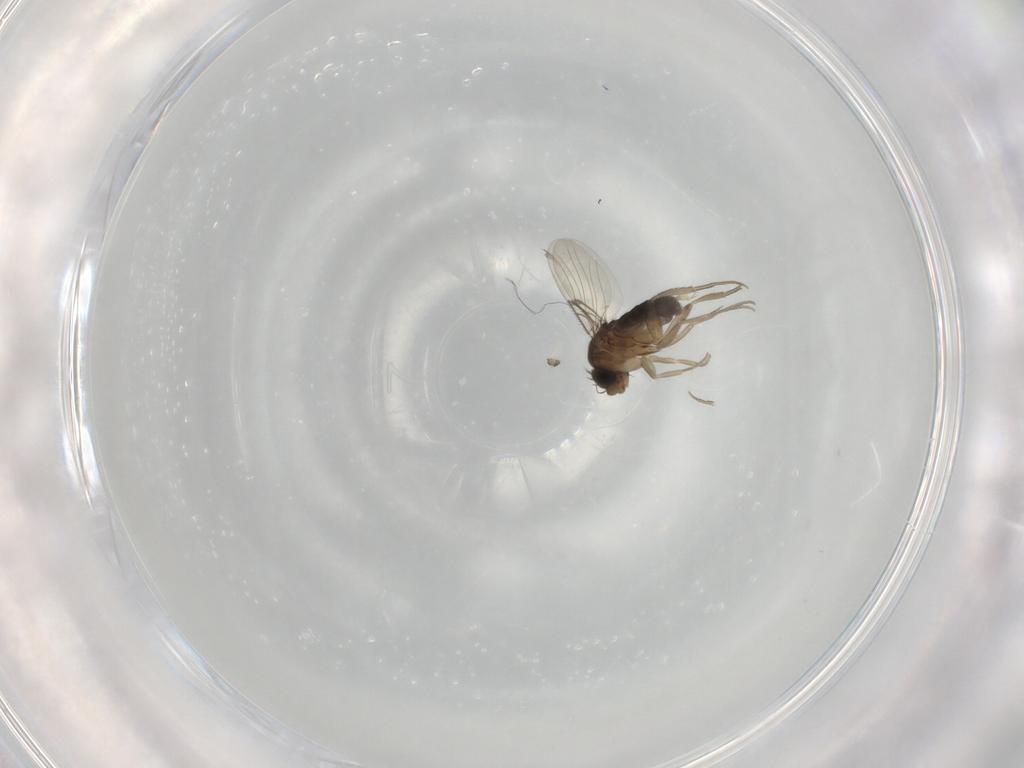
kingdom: Animalia
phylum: Arthropoda
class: Insecta
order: Diptera
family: Phoridae
